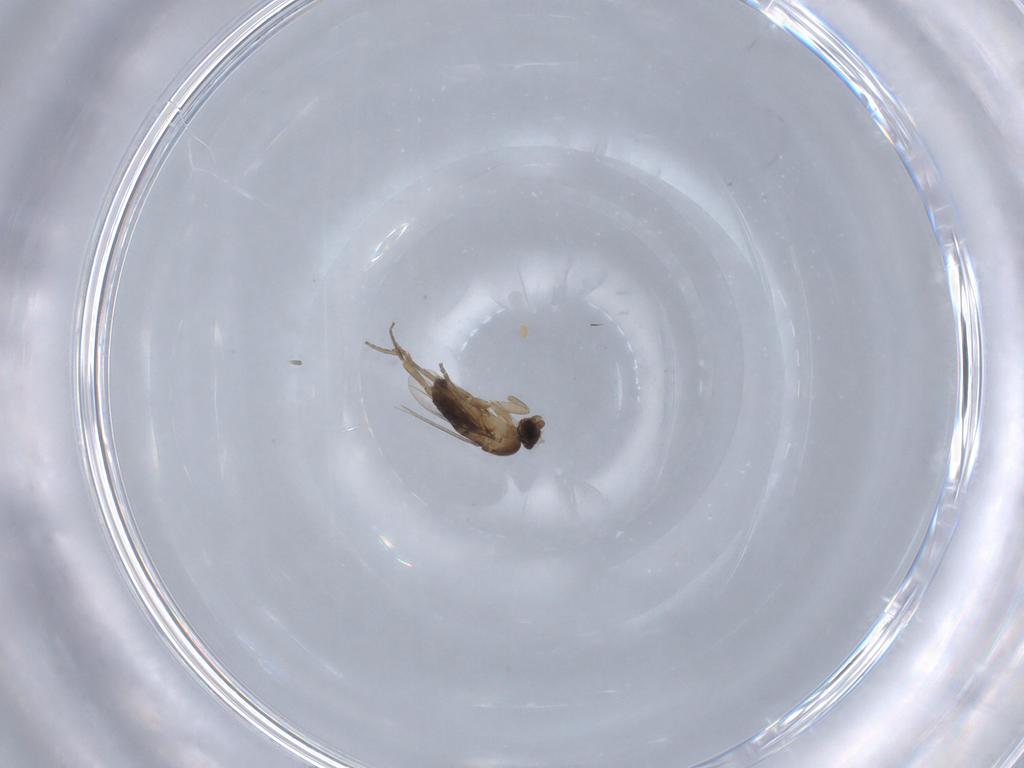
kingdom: Animalia
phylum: Arthropoda
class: Insecta
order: Diptera
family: Phoridae
